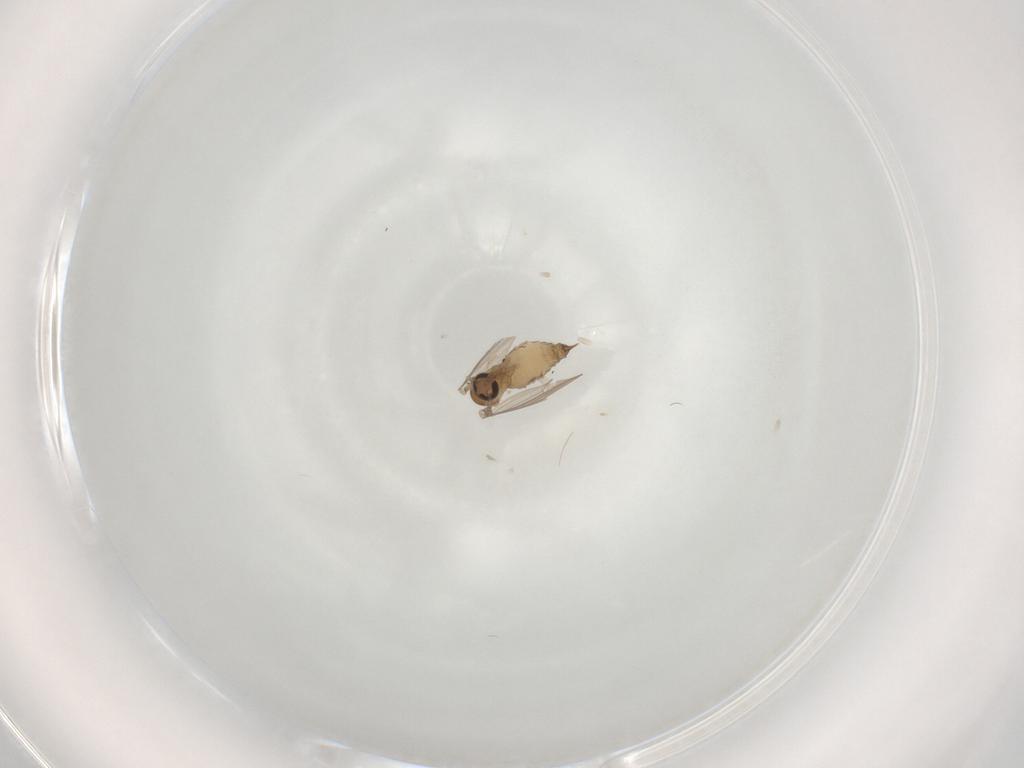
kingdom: Animalia
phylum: Arthropoda
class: Insecta
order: Diptera
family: Psychodidae
